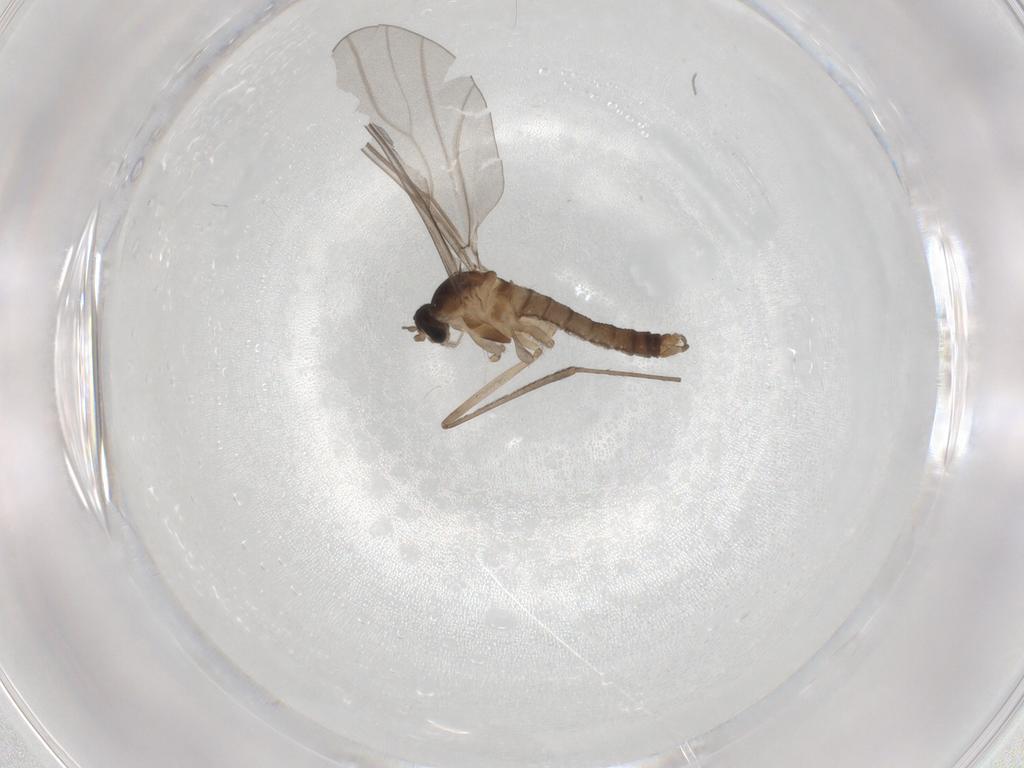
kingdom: Animalia
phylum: Arthropoda
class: Insecta
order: Diptera
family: Cecidomyiidae
